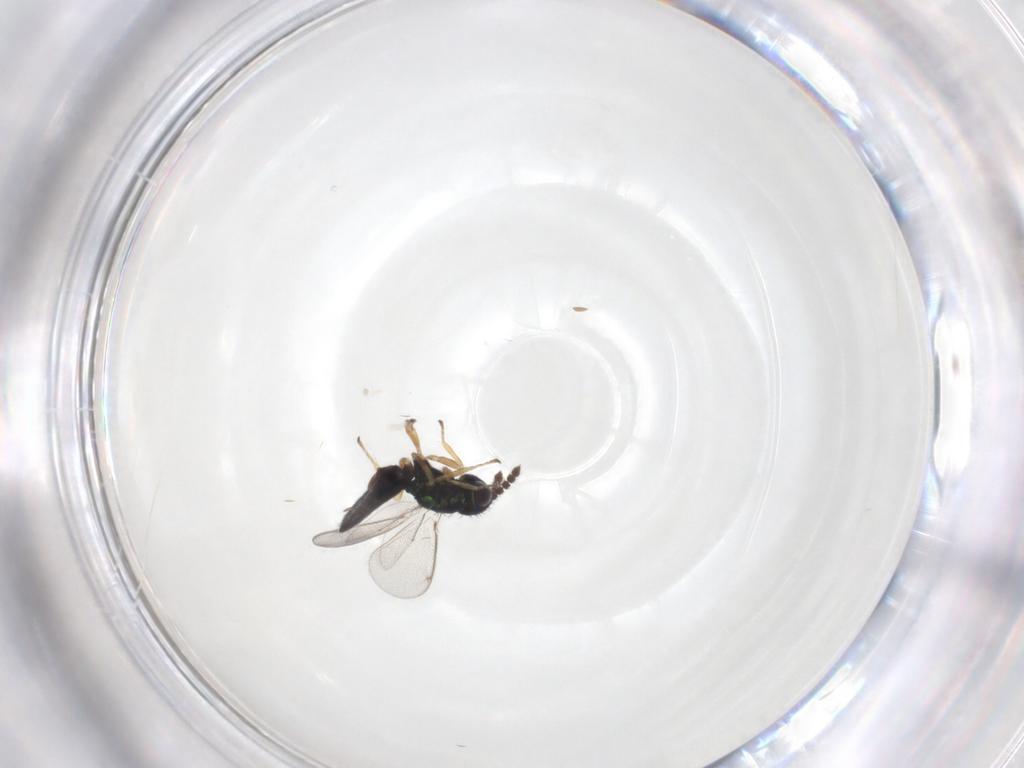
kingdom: Animalia
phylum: Arthropoda
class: Insecta
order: Hymenoptera
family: Eulophidae
